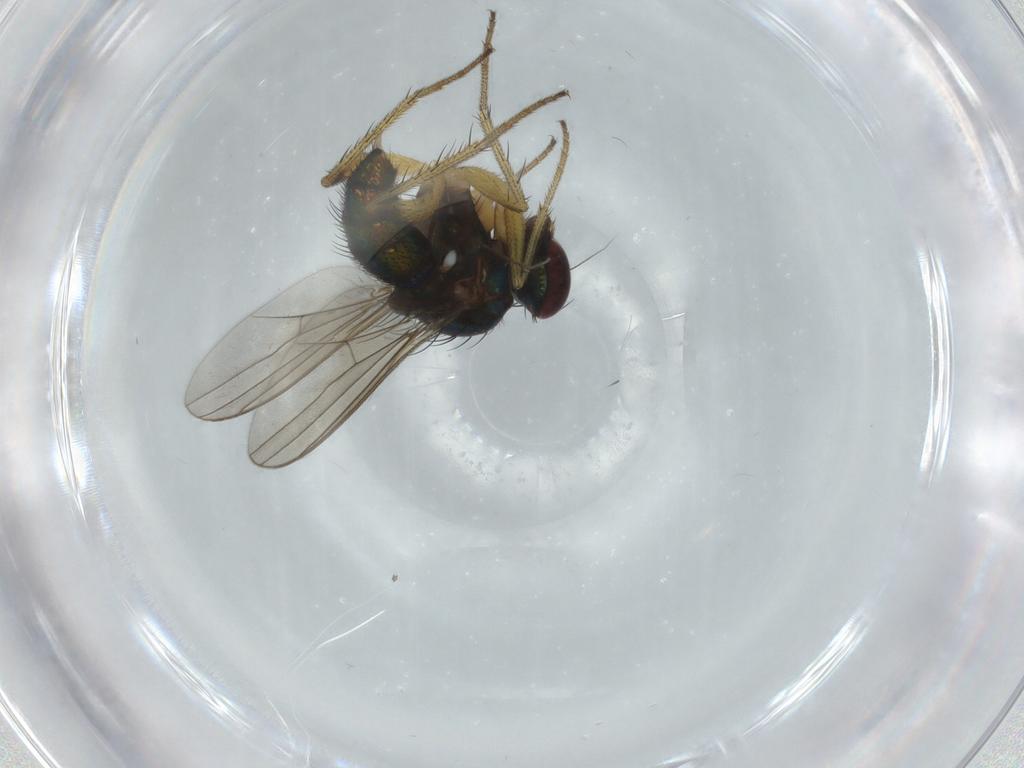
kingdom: Animalia
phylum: Arthropoda
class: Insecta
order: Diptera
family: Dolichopodidae
